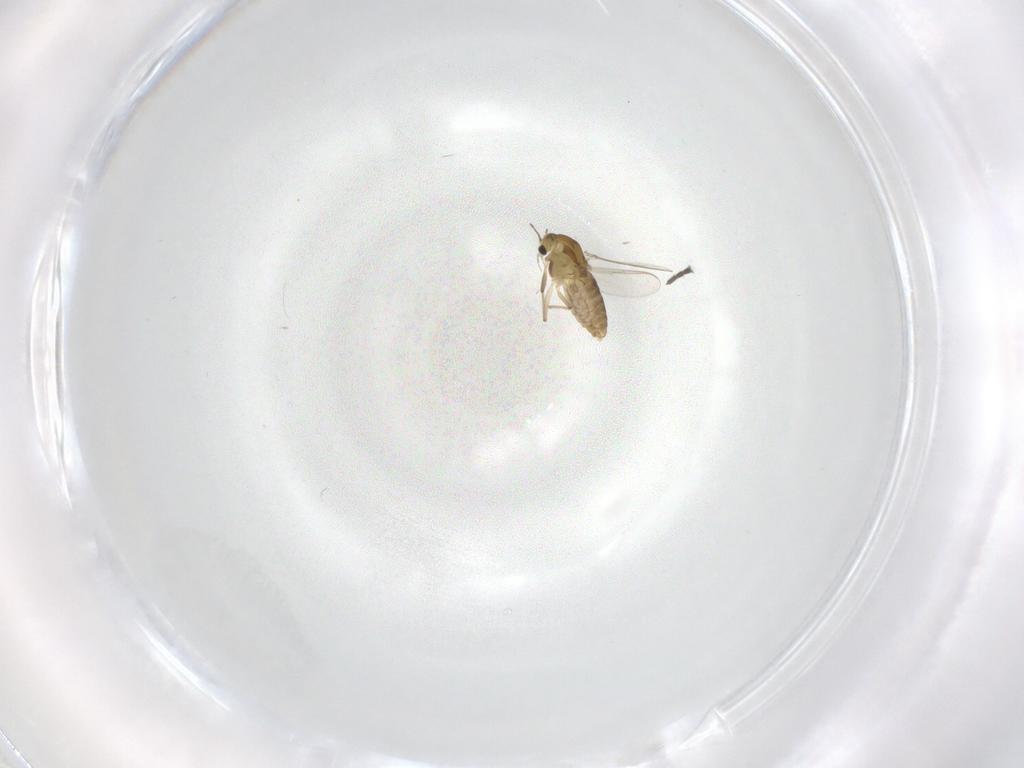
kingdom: Animalia
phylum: Arthropoda
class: Insecta
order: Diptera
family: Chironomidae
